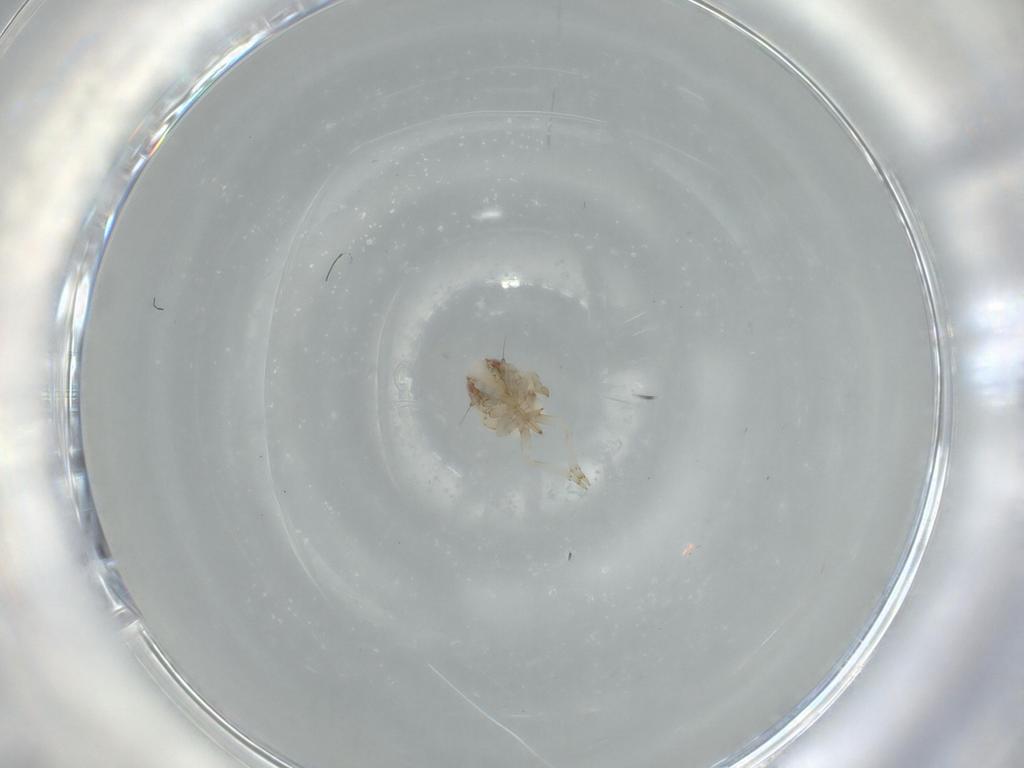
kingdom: Animalia
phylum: Arthropoda
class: Insecta
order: Hemiptera
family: Acanaloniidae
